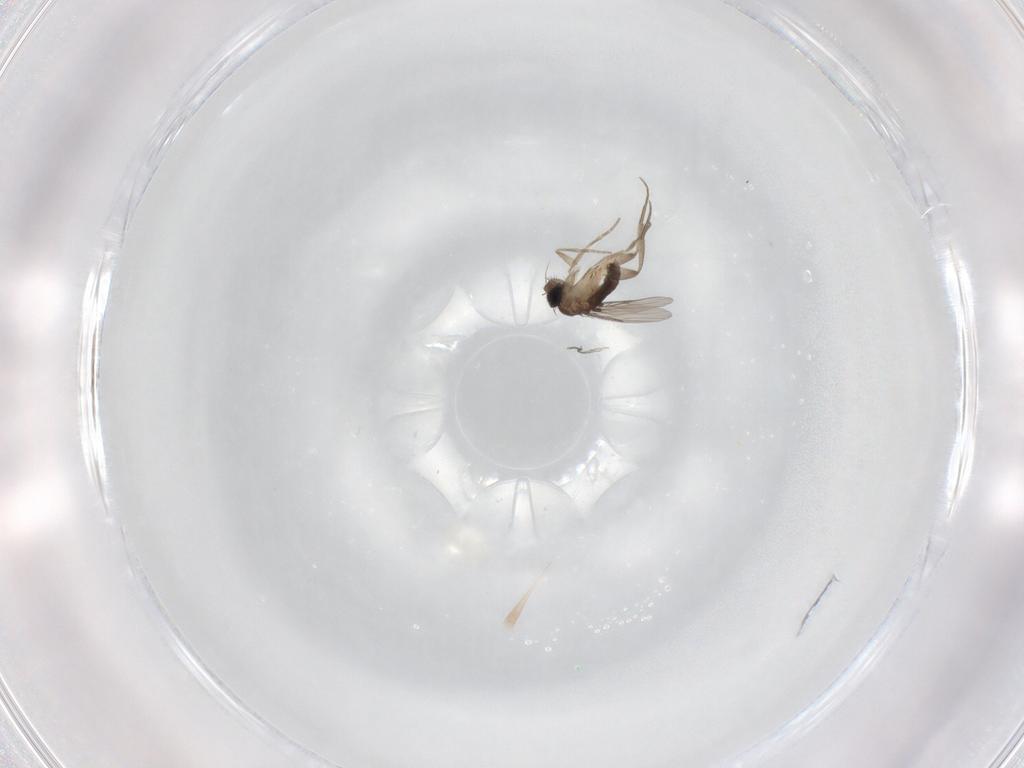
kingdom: Animalia
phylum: Arthropoda
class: Insecta
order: Diptera
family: Phoridae
